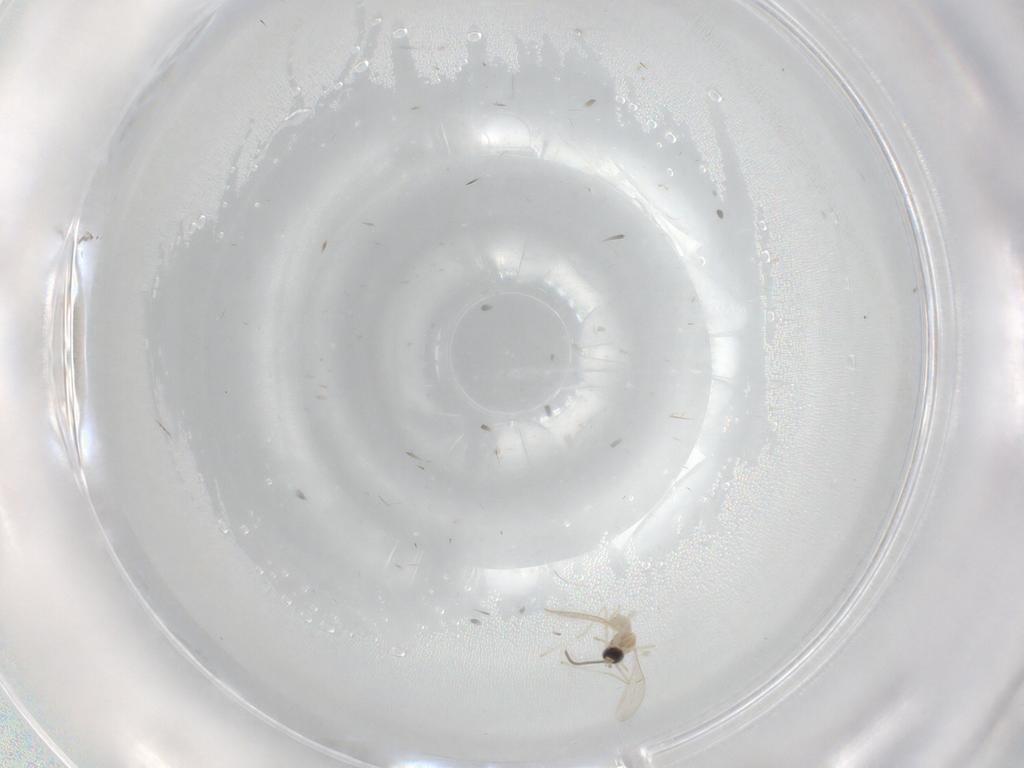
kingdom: Animalia
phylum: Arthropoda
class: Insecta
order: Diptera
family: Cecidomyiidae
